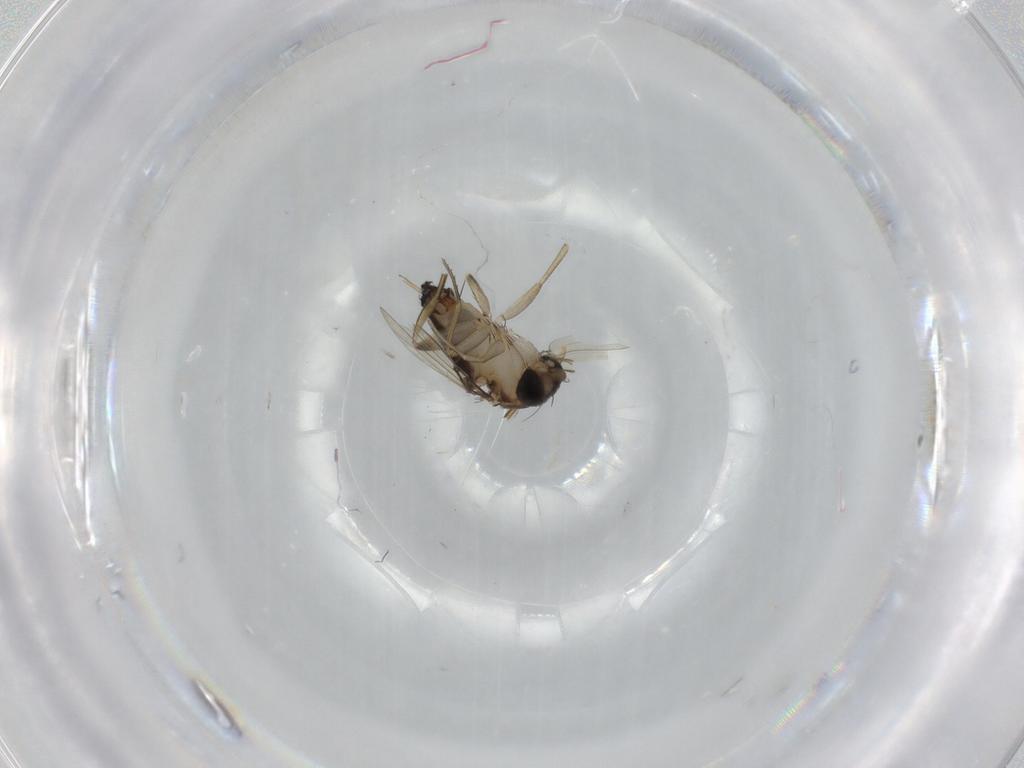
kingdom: Animalia
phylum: Arthropoda
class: Insecta
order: Diptera
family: Phoridae
